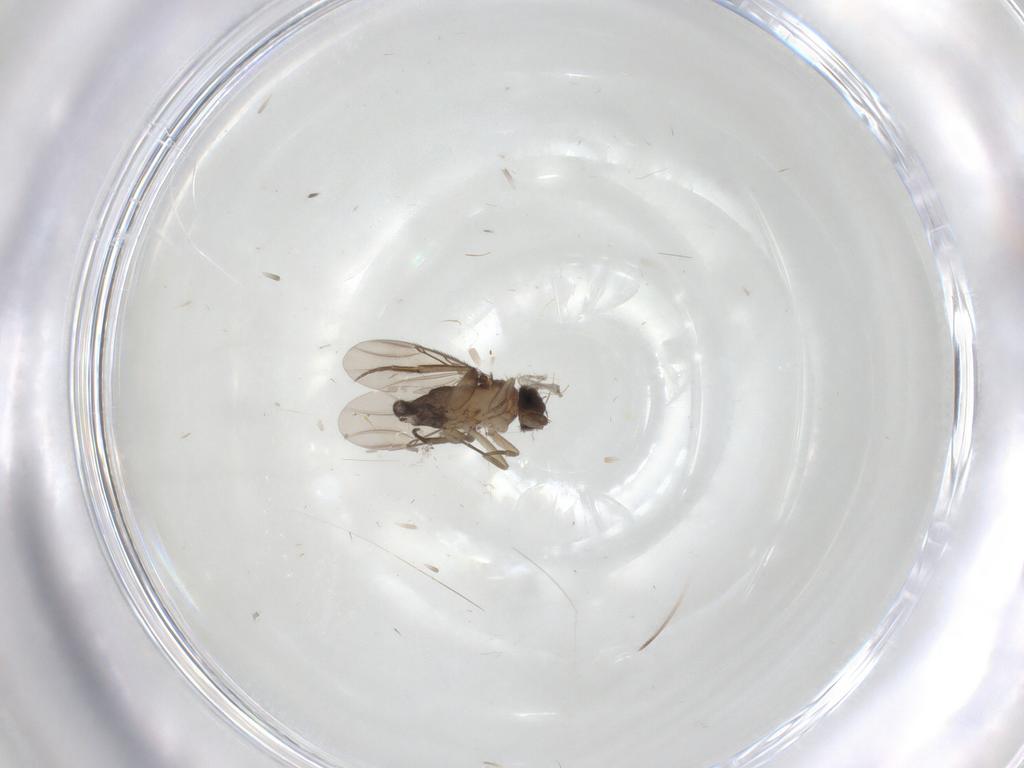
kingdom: Animalia
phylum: Arthropoda
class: Insecta
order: Diptera
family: Phoridae
